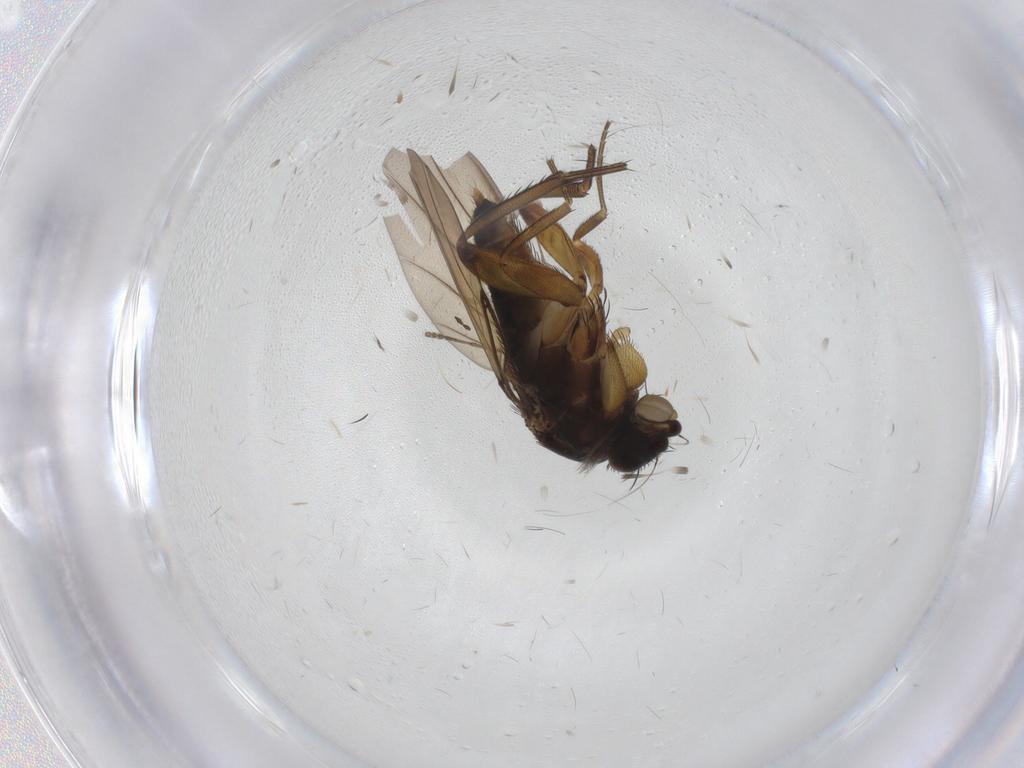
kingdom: Animalia
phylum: Arthropoda
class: Insecta
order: Diptera
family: Phoridae
